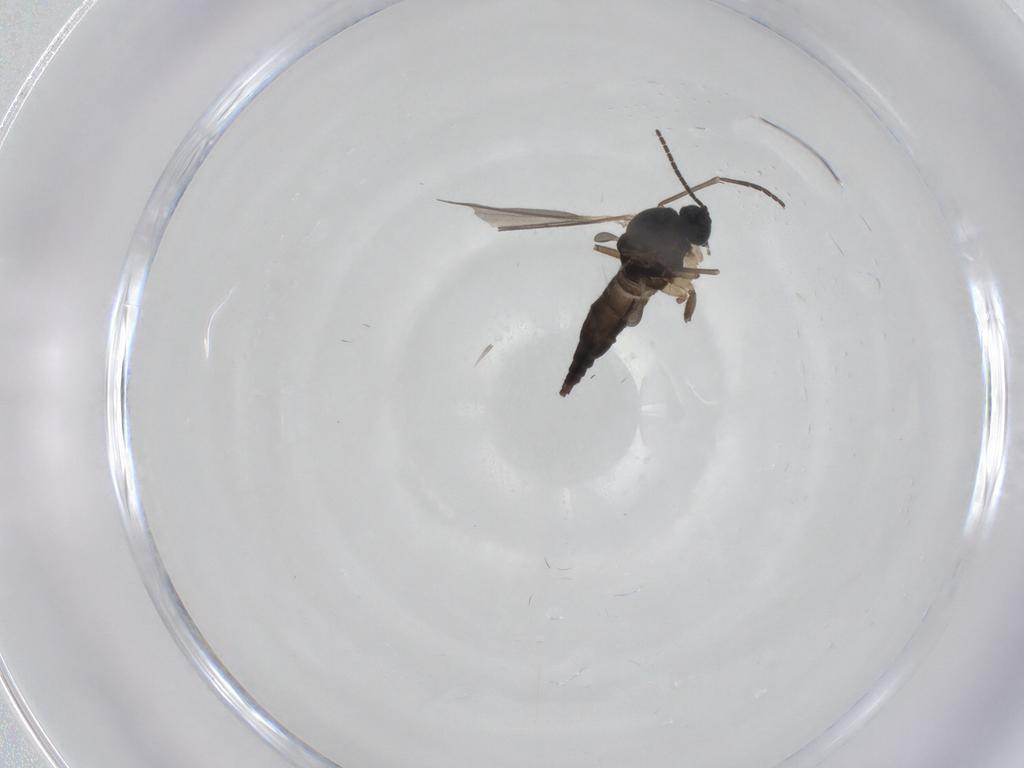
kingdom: Animalia
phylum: Arthropoda
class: Insecta
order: Diptera
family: Sciaridae
